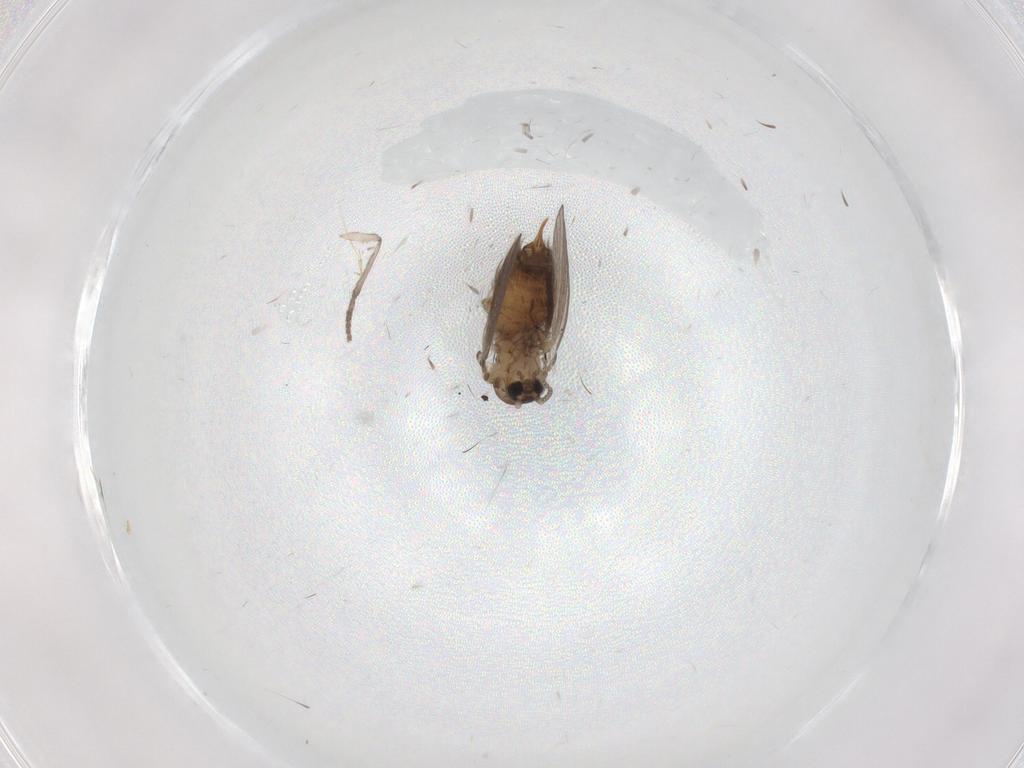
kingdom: Animalia
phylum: Arthropoda
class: Insecta
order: Diptera
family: Psychodidae
